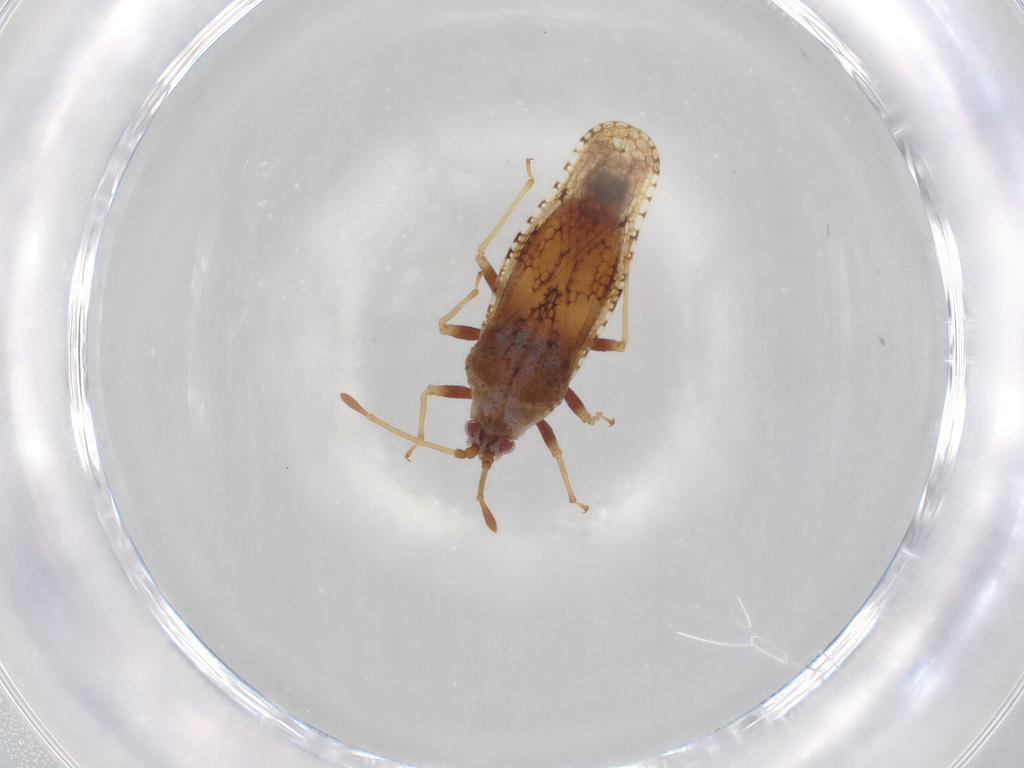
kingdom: Animalia
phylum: Arthropoda
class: Insecta
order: Hemiptera
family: Tingidae
